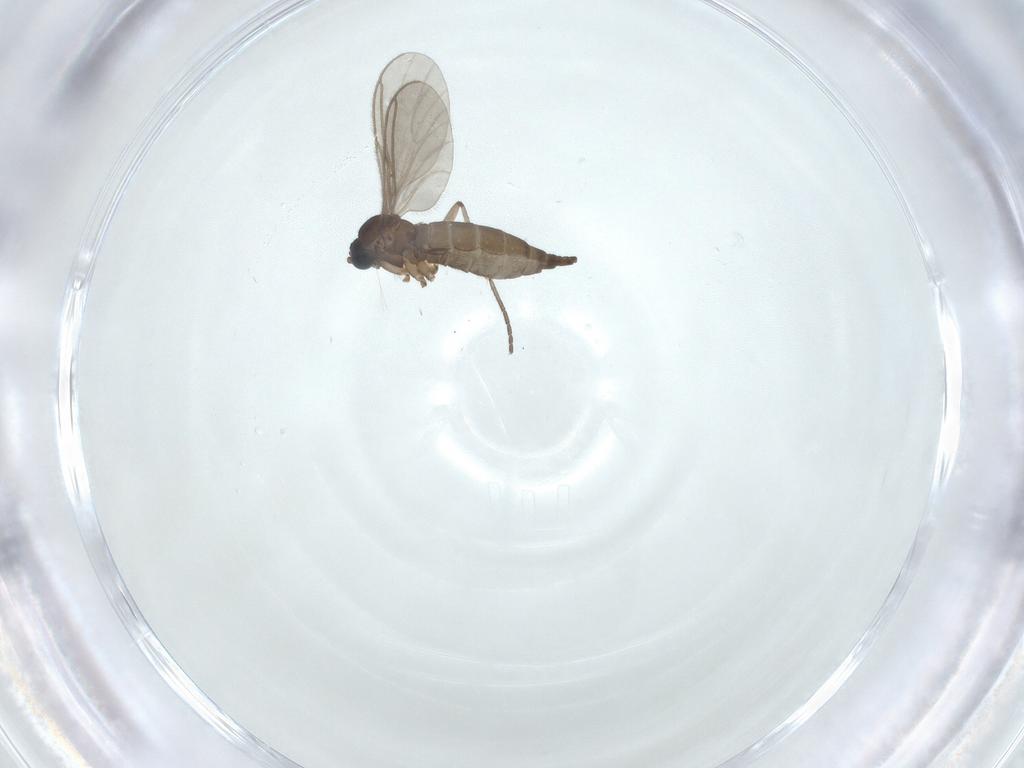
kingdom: Animalia
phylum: Arthropoda
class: Insecta
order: Diptera
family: Sciaridae
